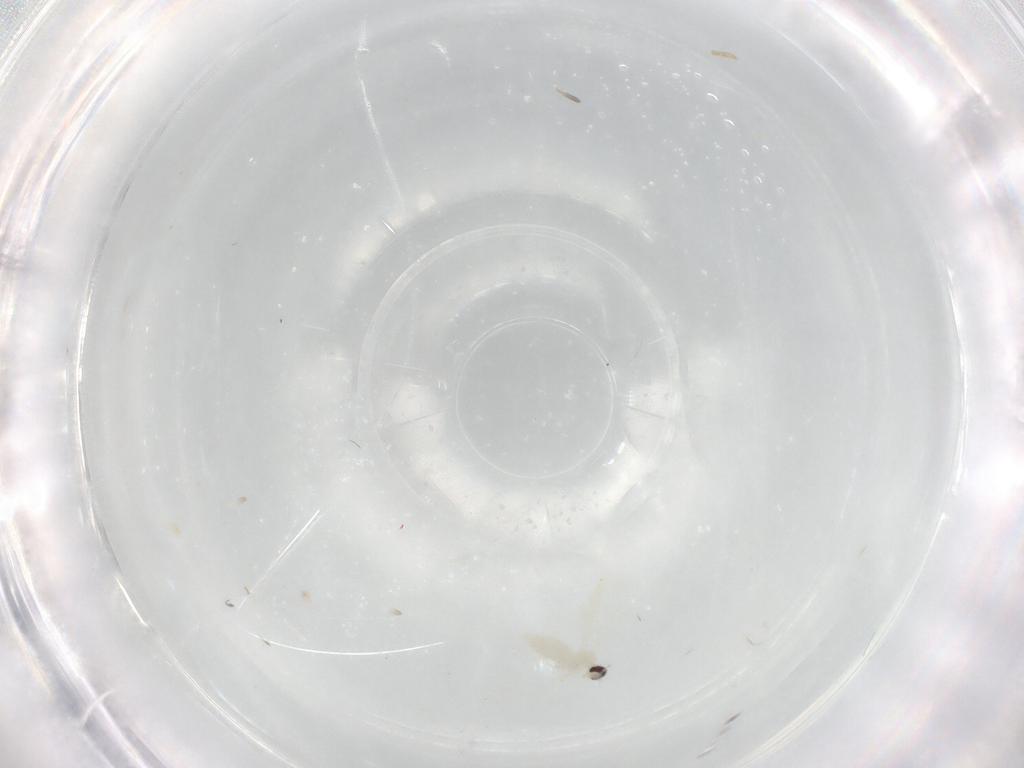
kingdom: Animalia
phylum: Arthropoda
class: Insecta
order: Diptera
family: Cecidomyiidae
